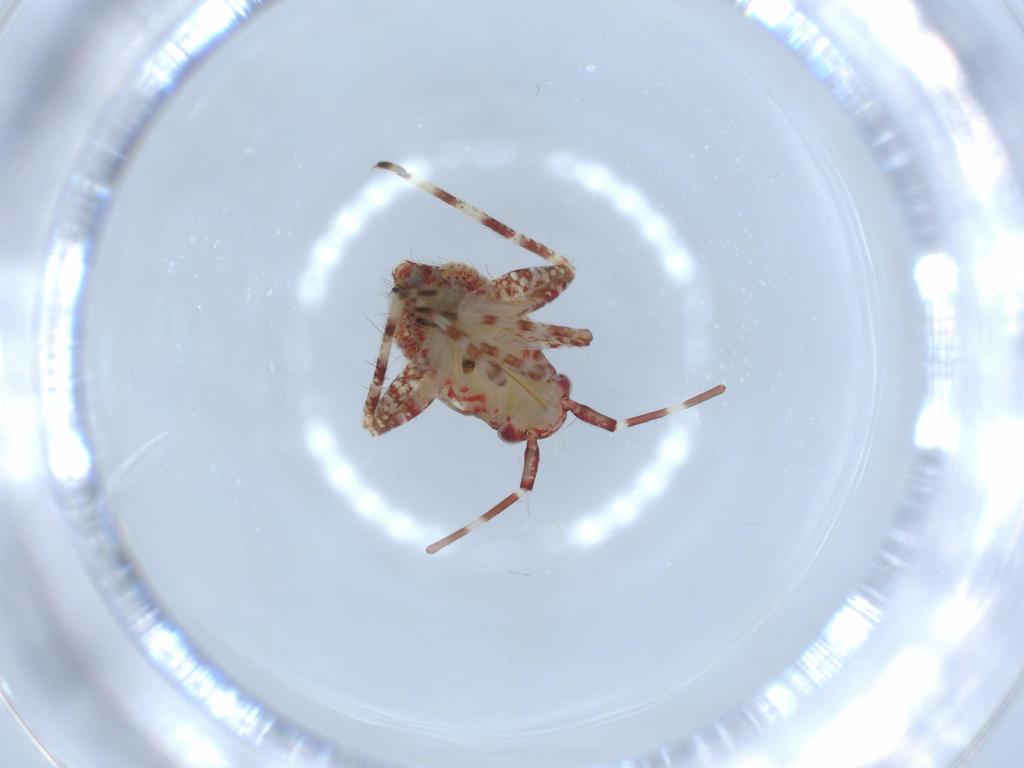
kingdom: Animalia
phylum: Arthropoda
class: Insecta
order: Hemiptera
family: Miridae
